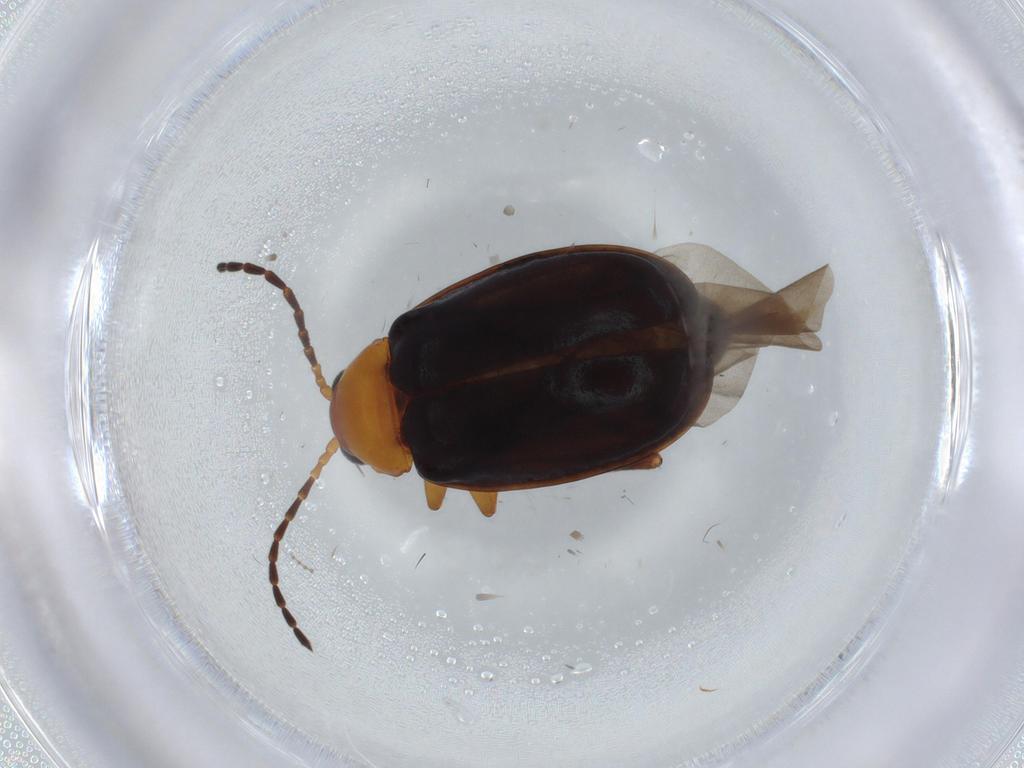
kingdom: Animalia
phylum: Arthropoda
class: Insecta
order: Coleoptera
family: Chrysomelidae
